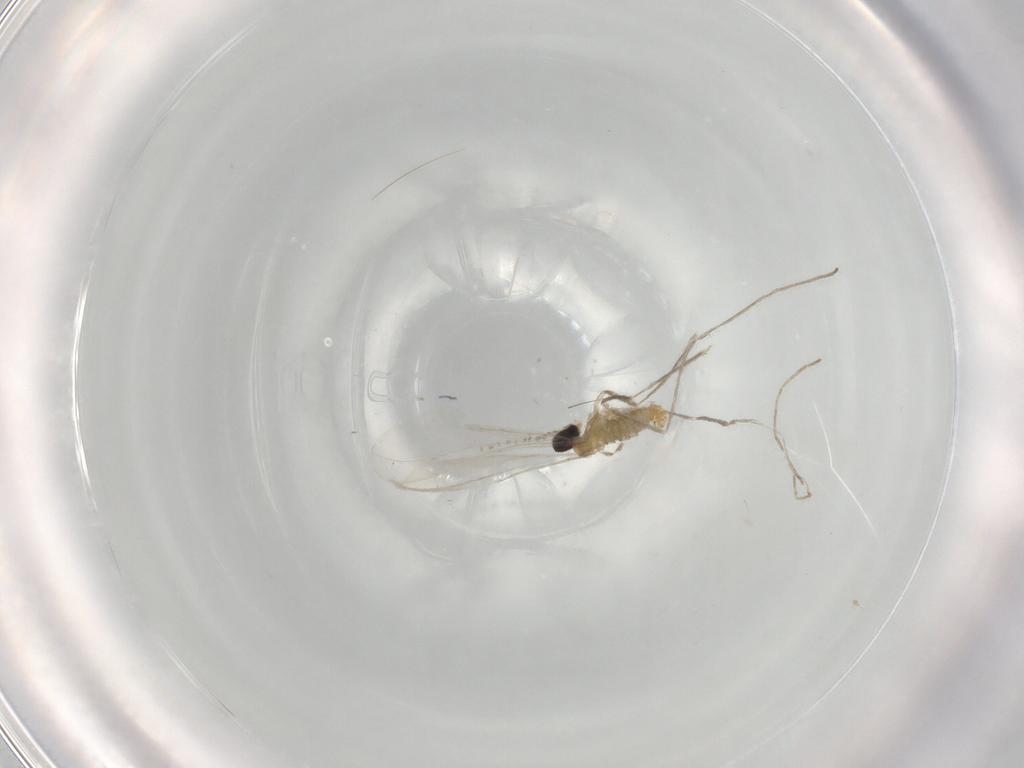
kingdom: Animalia
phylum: Arthropoda
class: Insecta
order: Diptera
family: Cecidomyiidae
